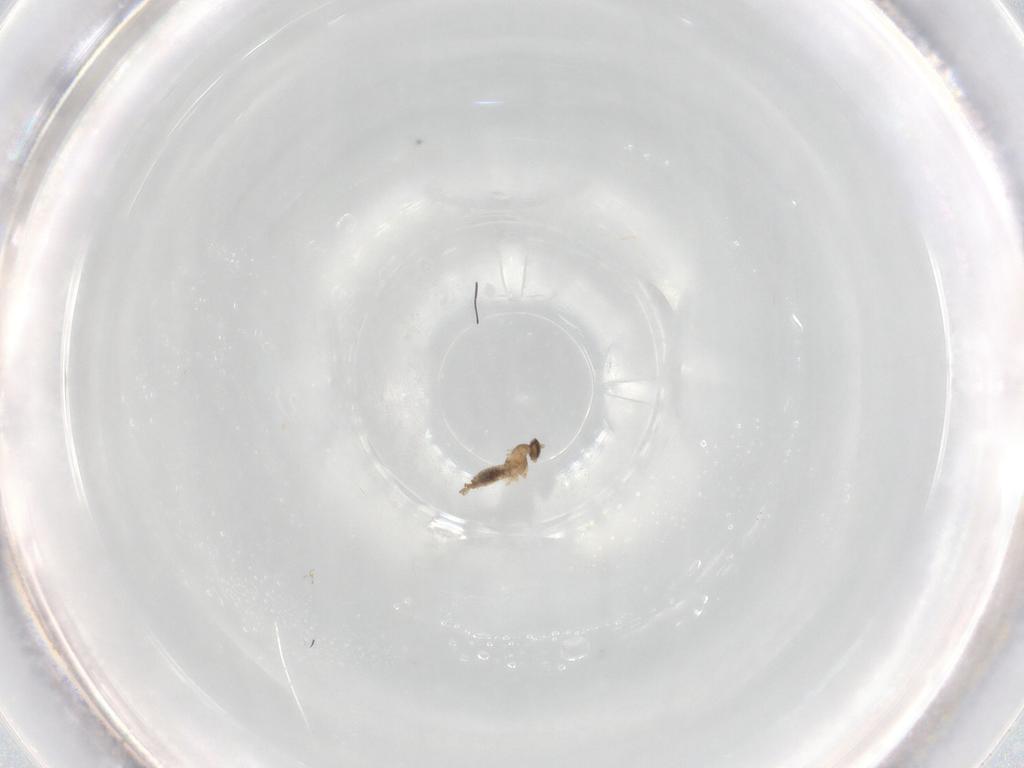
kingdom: Animalia
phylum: Arthropoda
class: Insecta
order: Diptera
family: Cecidomyiidae
